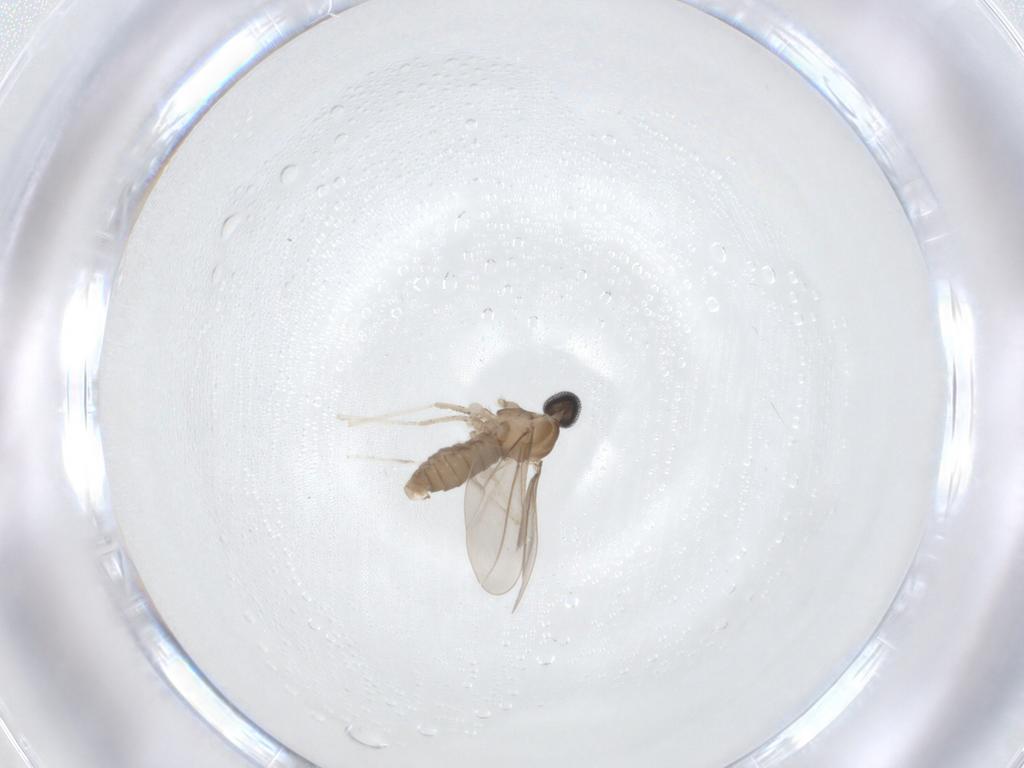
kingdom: Animalia
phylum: Arthropoda
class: Insecta
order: Diptera
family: Cecidomyiidae
